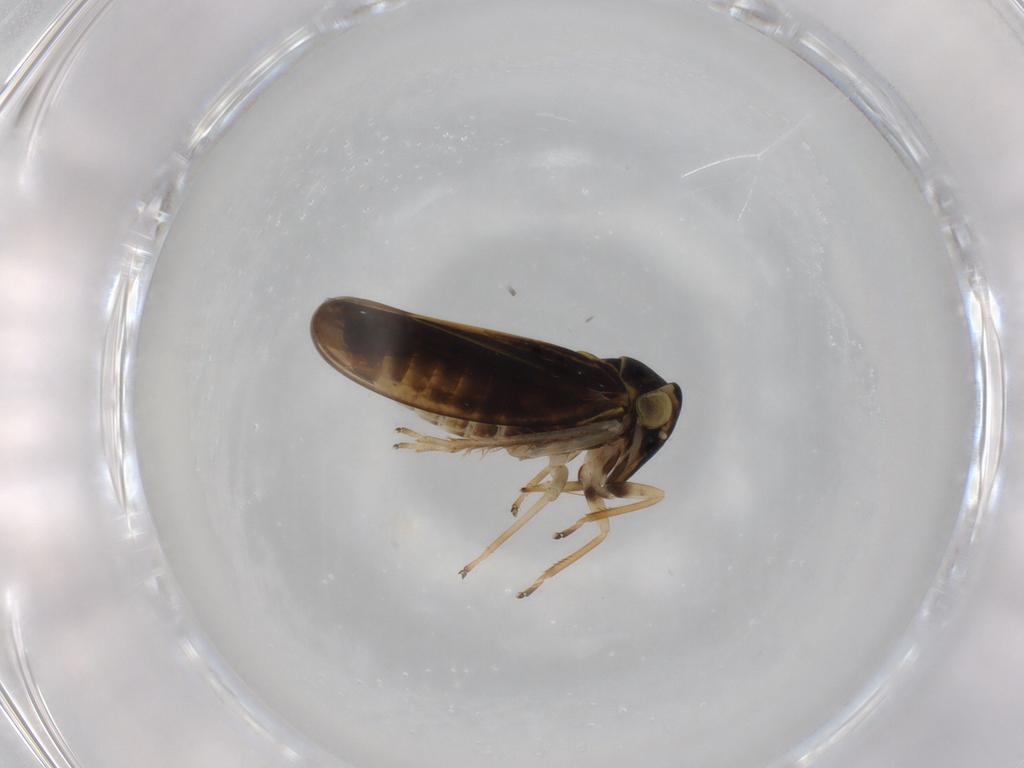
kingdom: Animalia
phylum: Arthropoda
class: Insecta
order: Hemiptera
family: Cicadellidae
